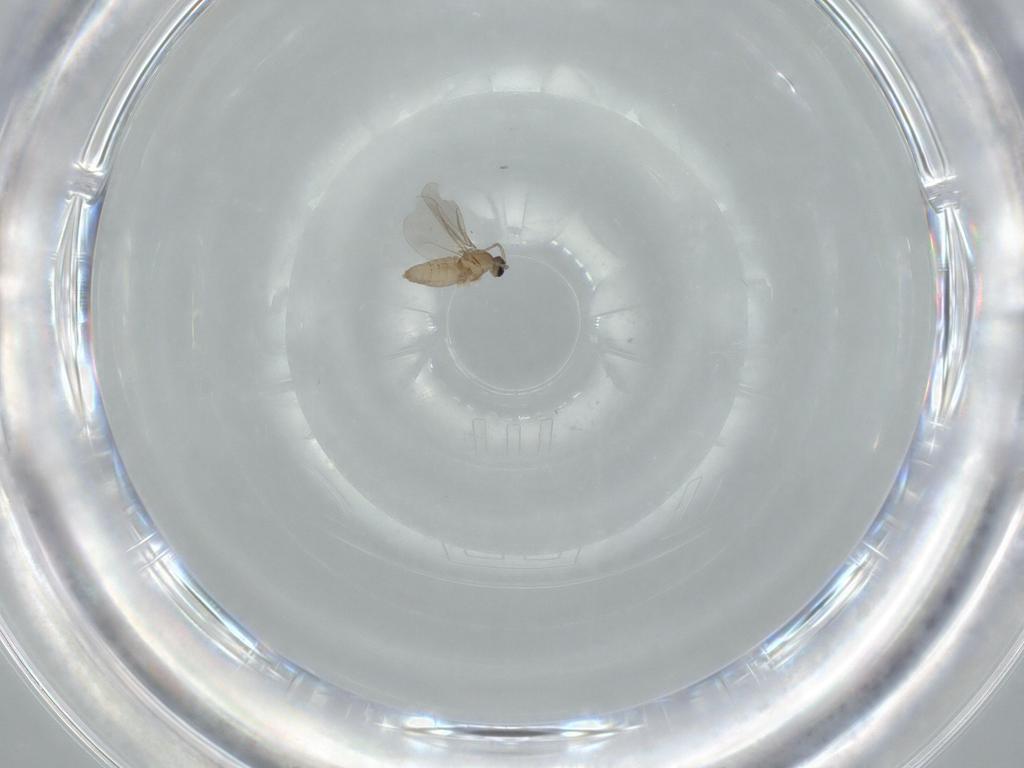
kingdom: Animalia
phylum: Arthropoda
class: Insecta
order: Diptera
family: Cecidomyiidae
